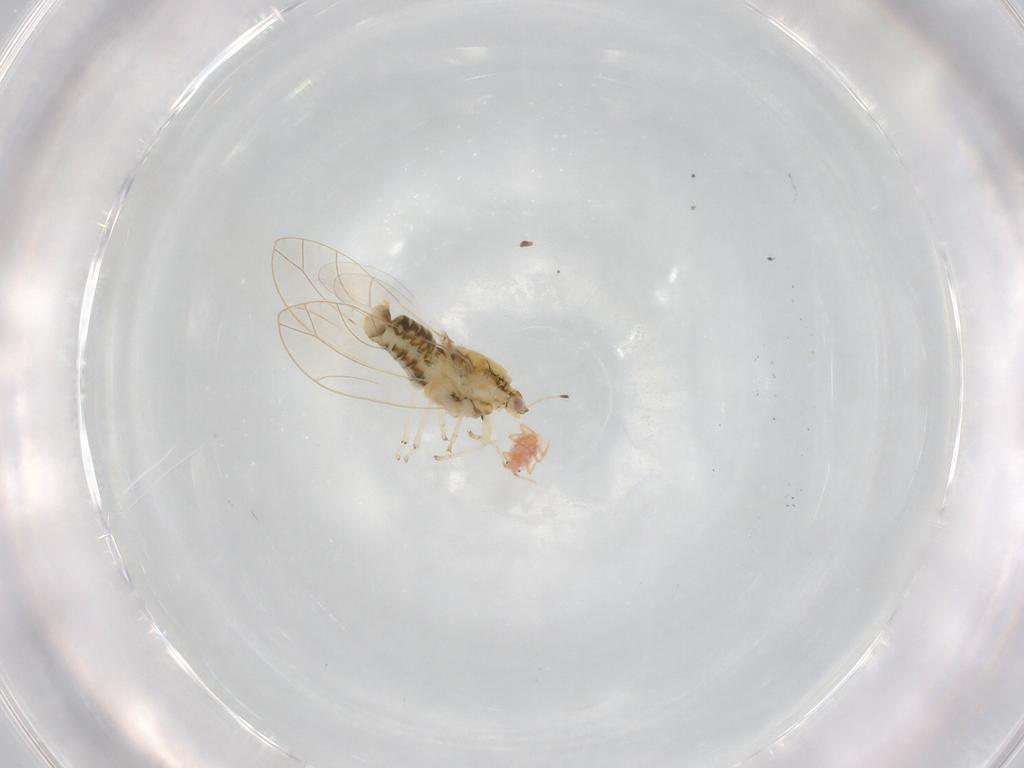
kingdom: Animalia
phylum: Arthropoda
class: Insecta
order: Hemiptera
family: Triozidae
